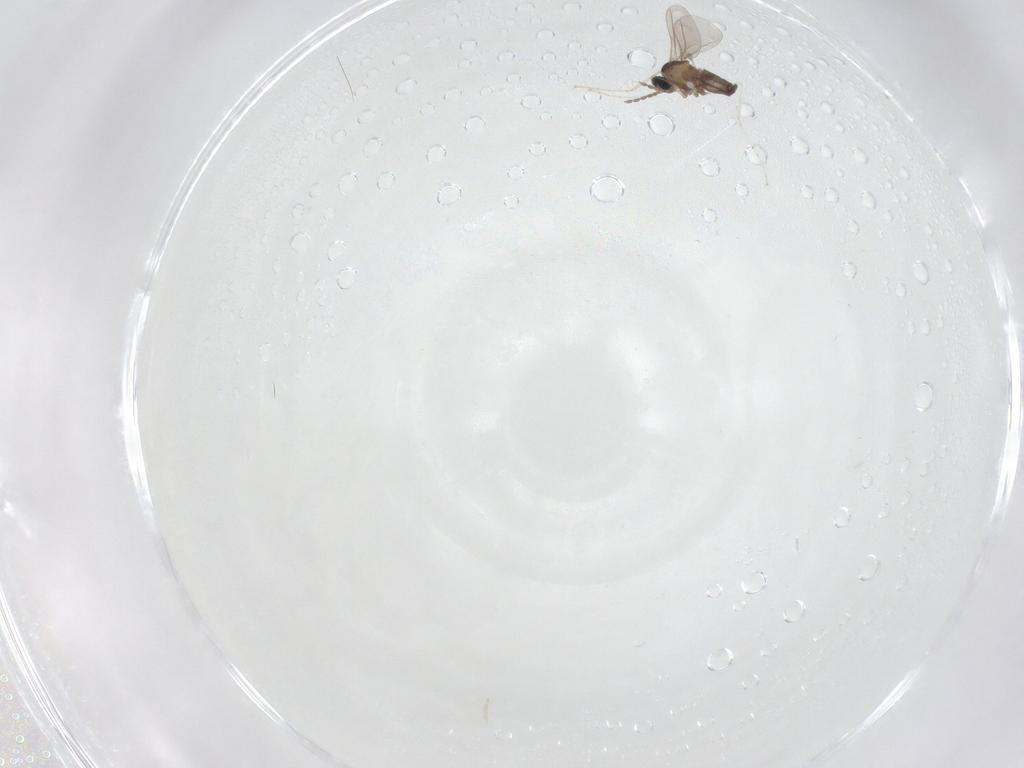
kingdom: Animalia
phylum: Arthropoda
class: Insecta
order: Diptera
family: Cecidomyiidae
